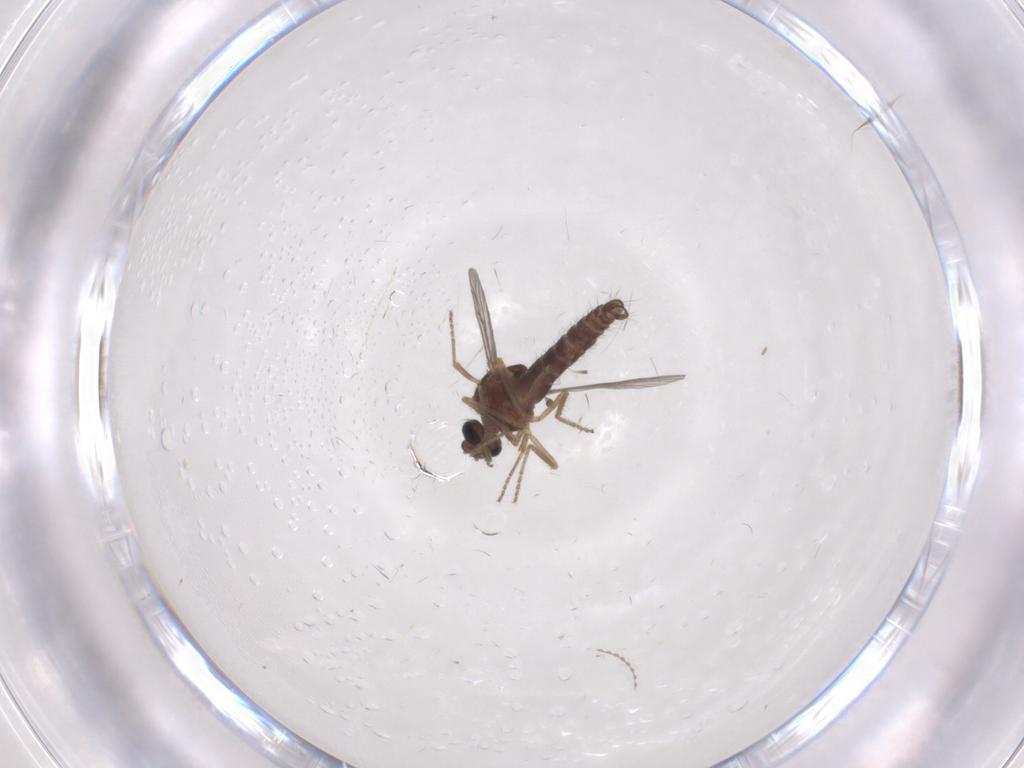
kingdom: Animalia
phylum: Arthropoda
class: Insecta
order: Diptera
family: Ceratopogonidae
